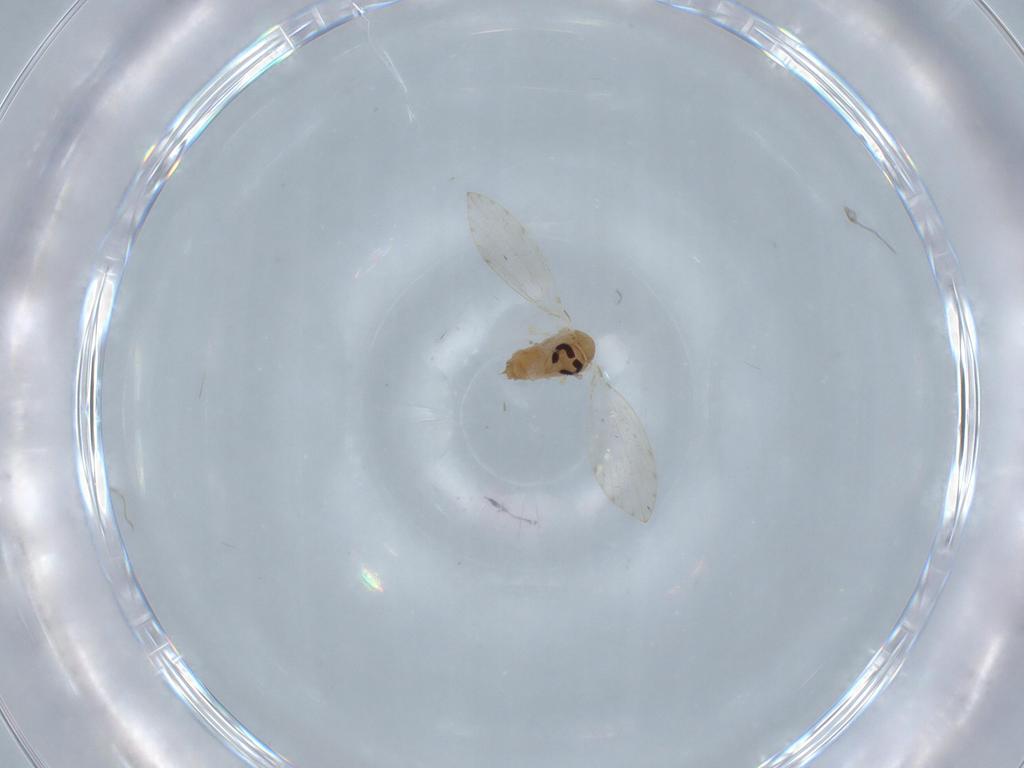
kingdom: Animalia
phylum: Arthropoda
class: Insecta
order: Diptera
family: Psychodidae
